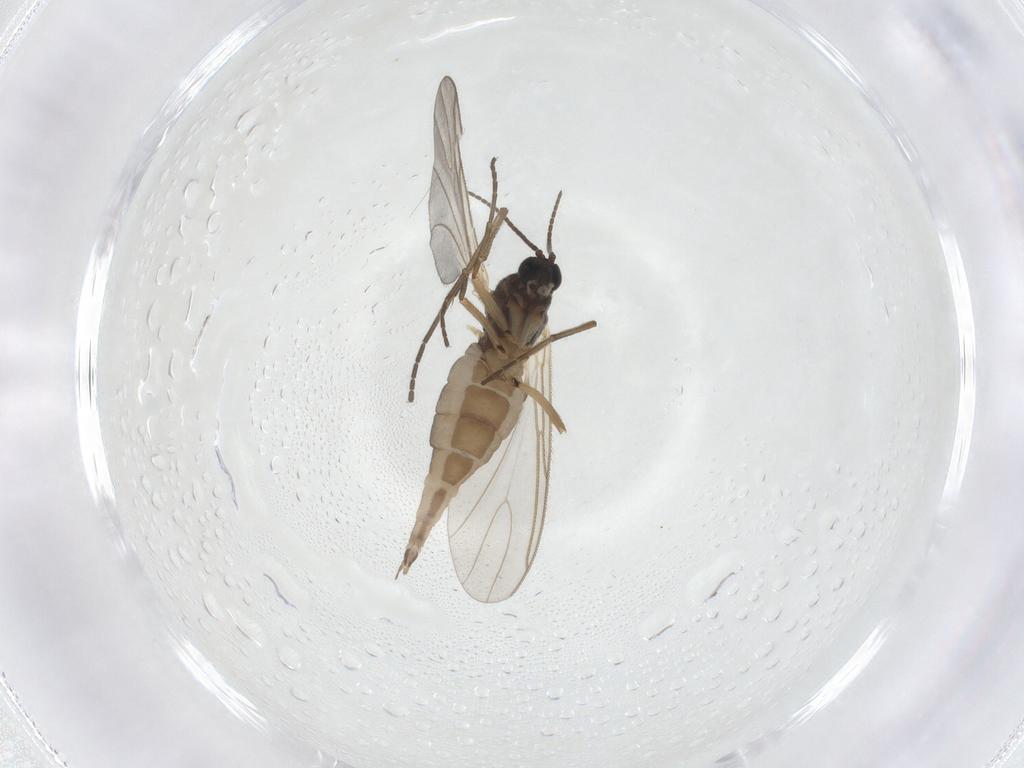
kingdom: Animalia
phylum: Arthropoda
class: Insecta
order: Diptera
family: Sciaridae
